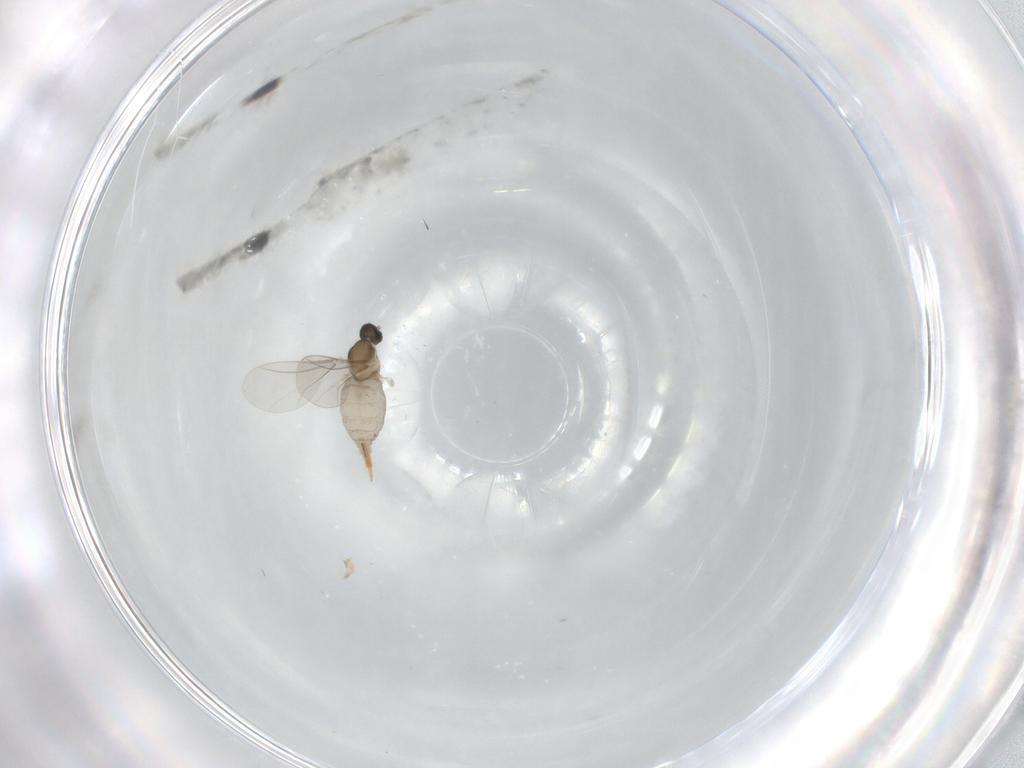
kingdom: Animalia
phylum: Arthropoda
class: Insecta
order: Diptera
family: Cecidomyiidae
